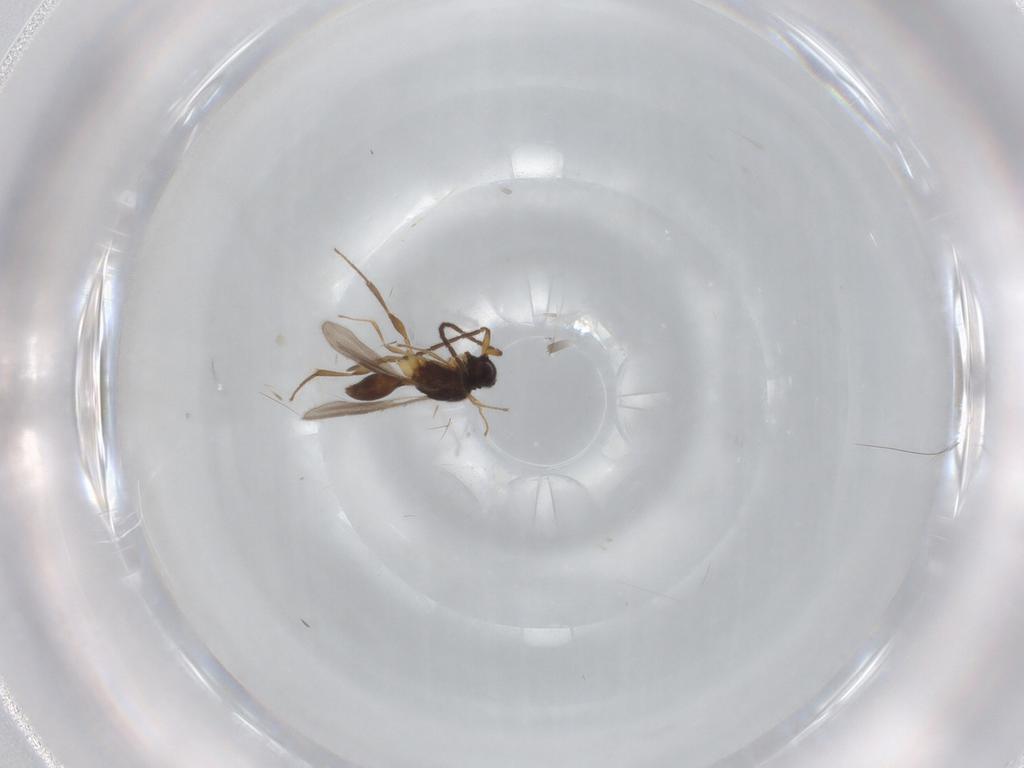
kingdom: Animalia
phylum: Arthropoda
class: Insecta
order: Hymenoptera
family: Megaspilidae
